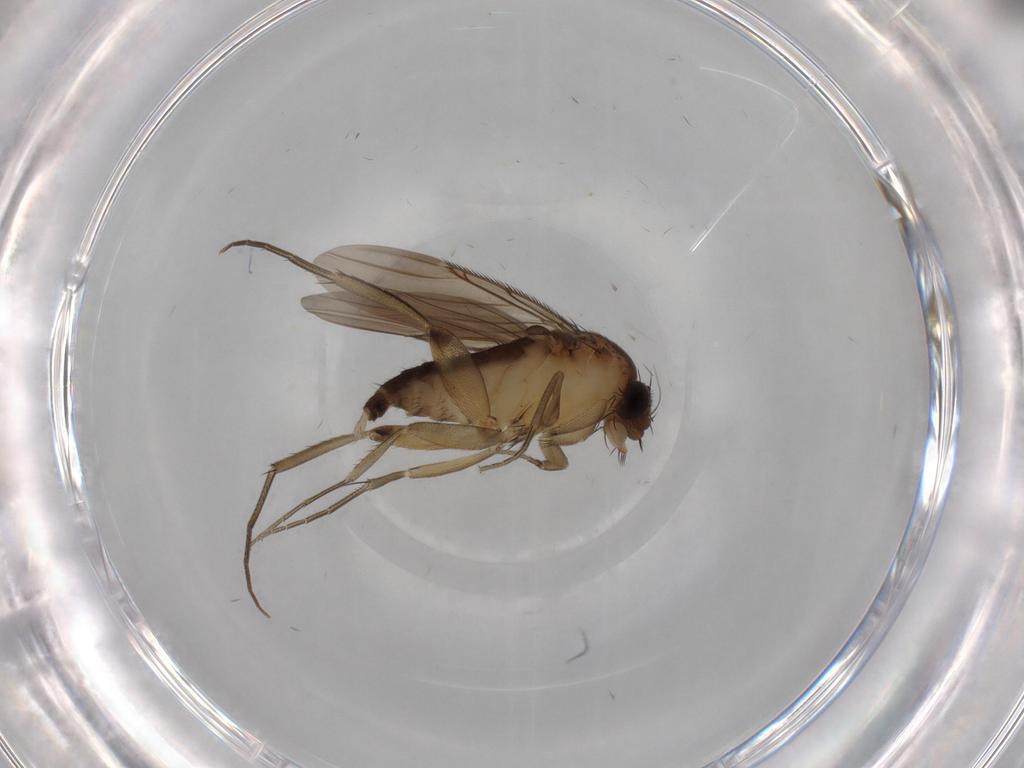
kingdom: Animalia
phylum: Arthropoda
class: Insecta
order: Diptera
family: Phoridae
